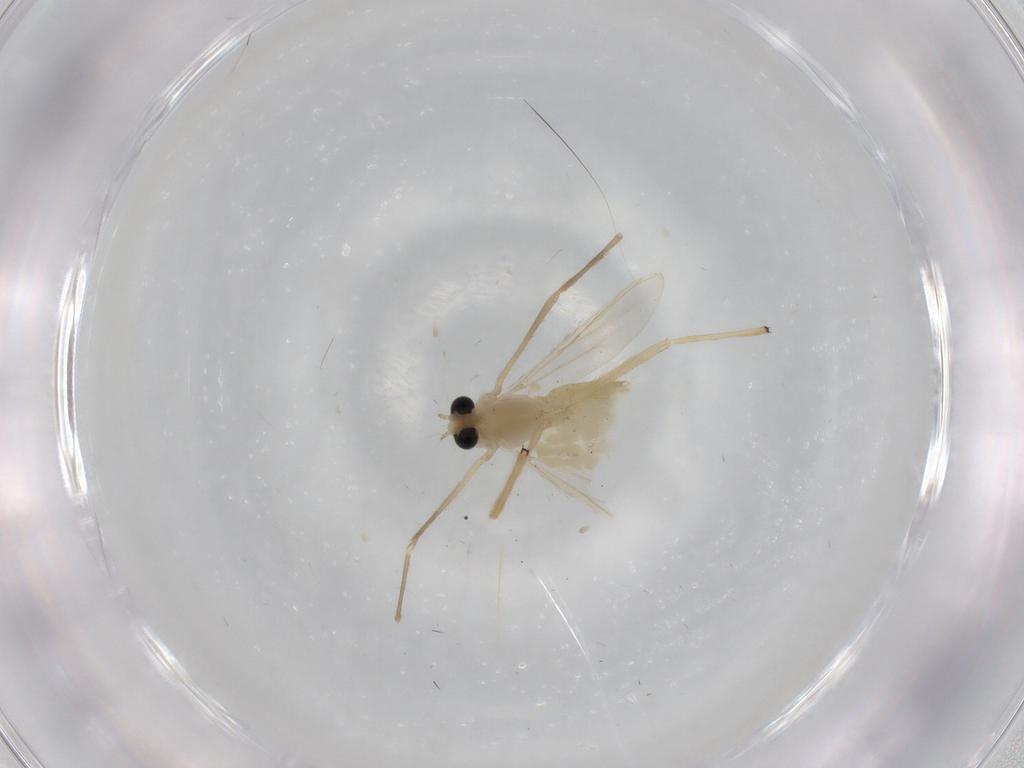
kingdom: Animalia
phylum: Arthropoda
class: Insecta
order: Diptera
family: Chironomidae
